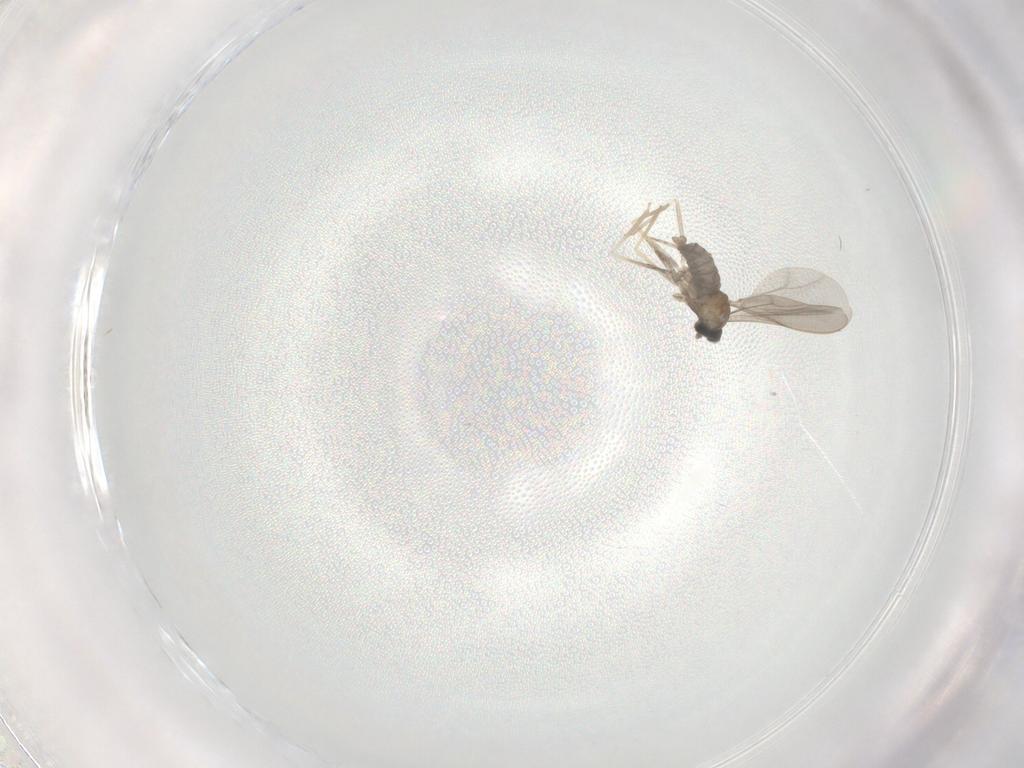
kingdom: Animalia
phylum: Arthropoda
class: Insecta
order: Diptera
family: Cecidomyiidae
